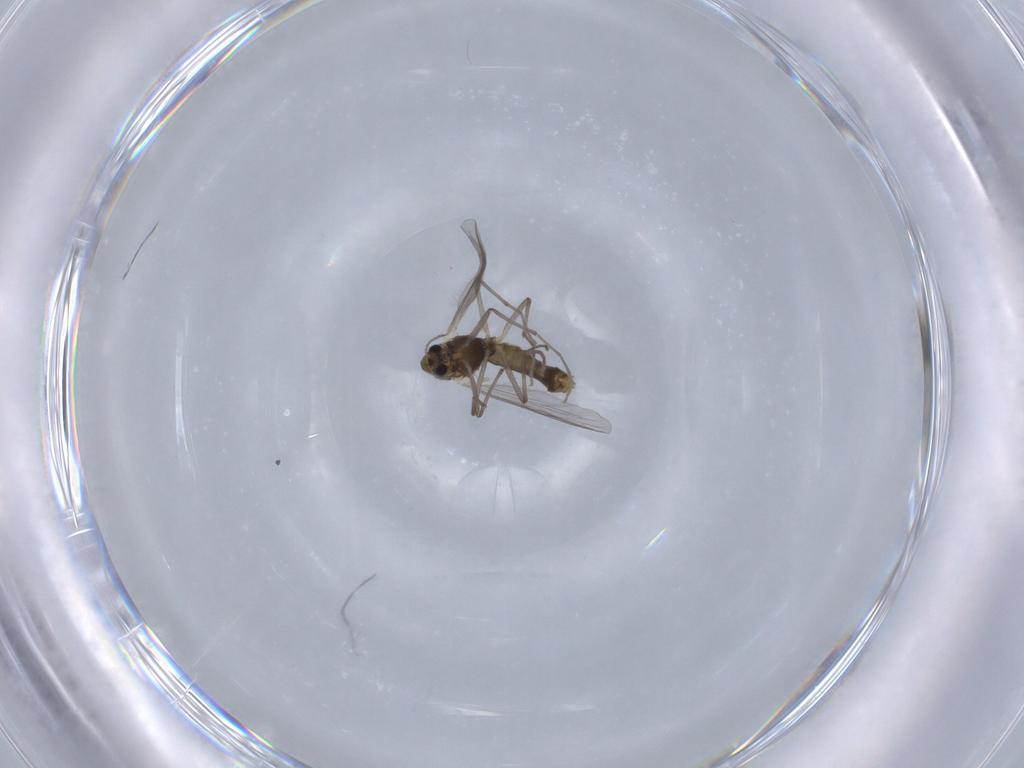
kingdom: Animalia
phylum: Arthropoda
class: Insecta
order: Diptera
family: Chironomidae
